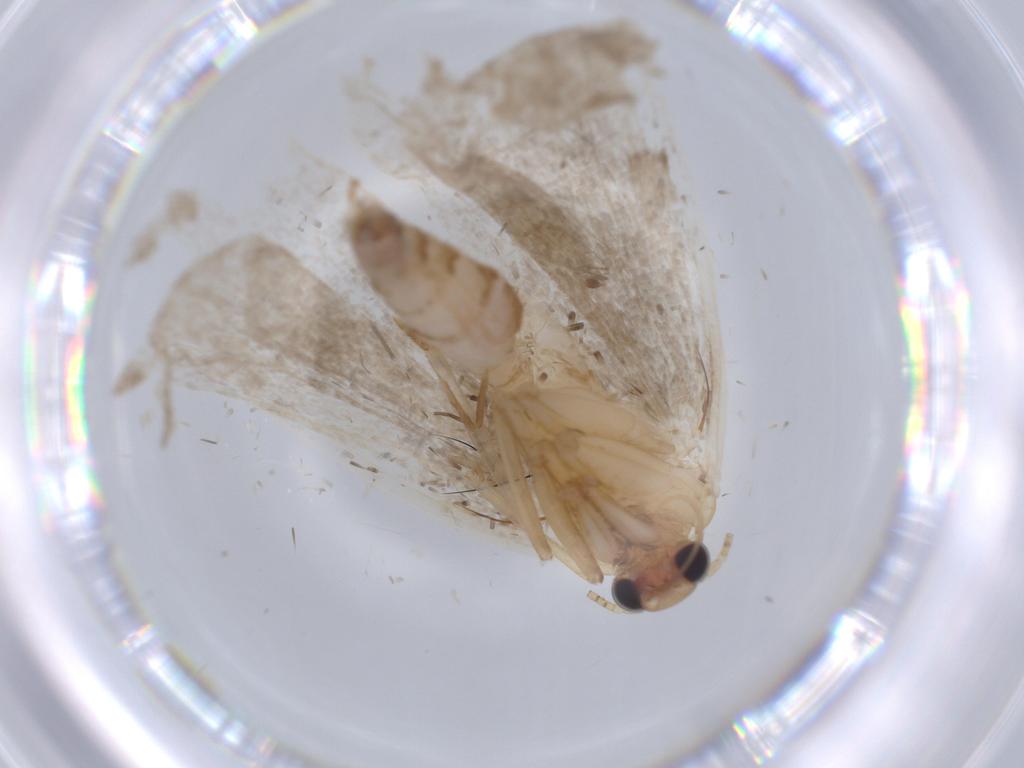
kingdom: Animalia
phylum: Arthropoda
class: Insecta
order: Lepidoptera
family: Erebidae
